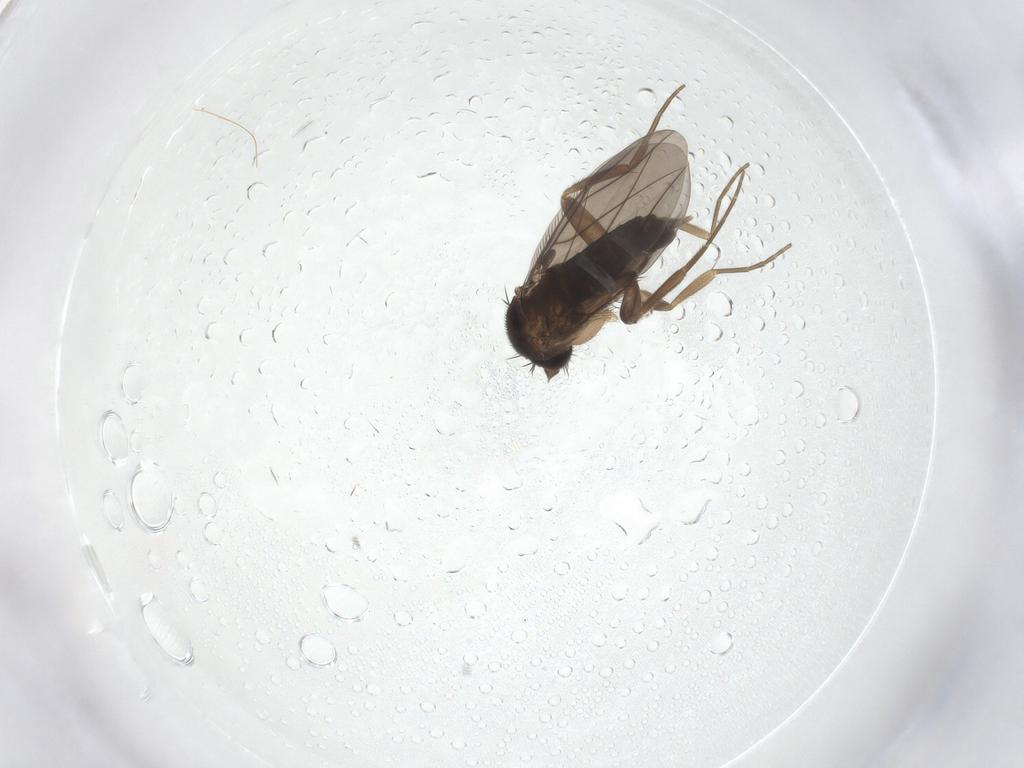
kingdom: Animalia
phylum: Arthropoda
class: Insecta
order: Diptera
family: Phoridae
